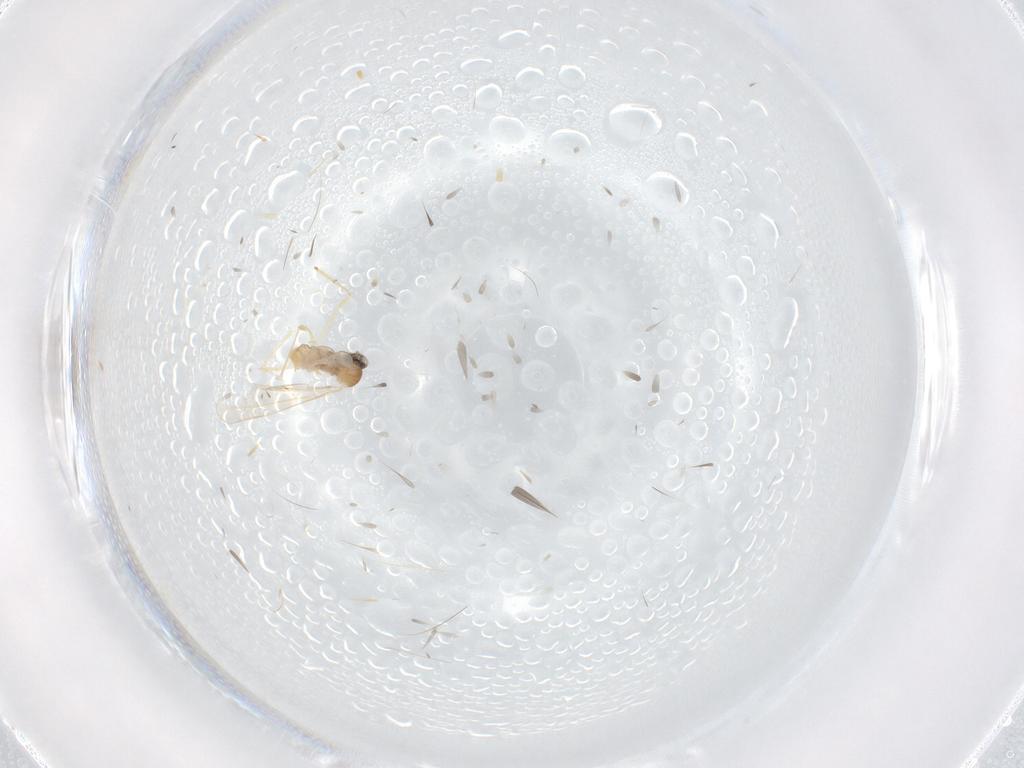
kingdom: Animalia
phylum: Arthropoda
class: Insecta
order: Diptera
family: Cecidomyiidae
